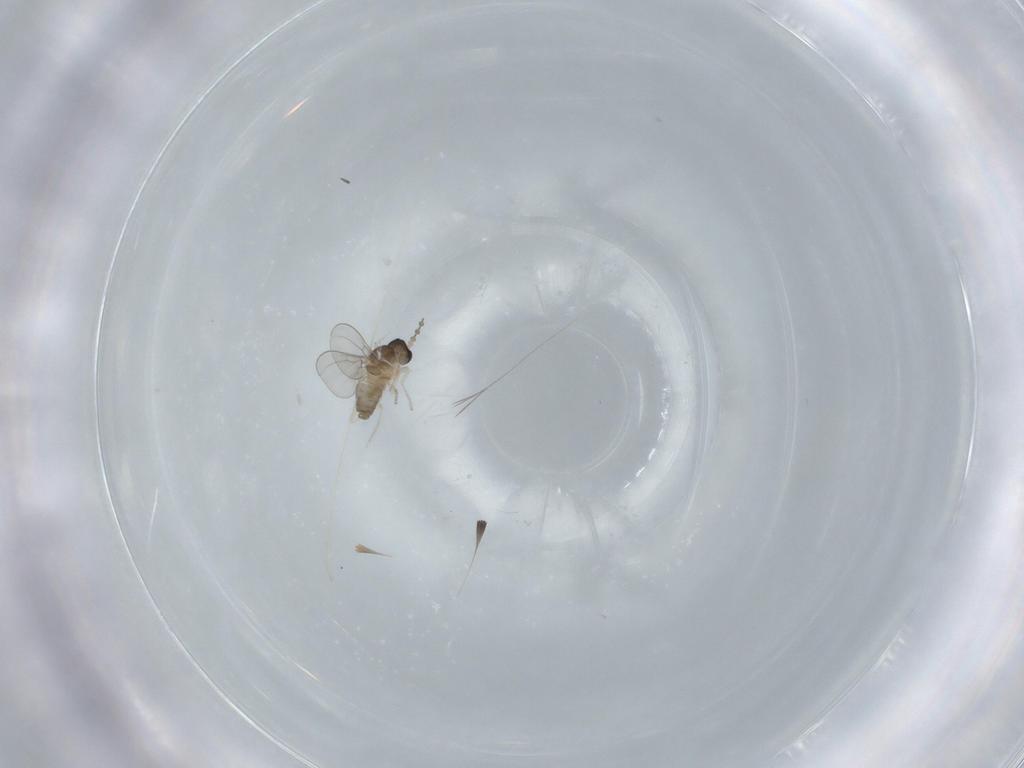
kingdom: Animalia
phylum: Arthropoda
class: Insecta
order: Diptera
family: Cecidomyiidae
